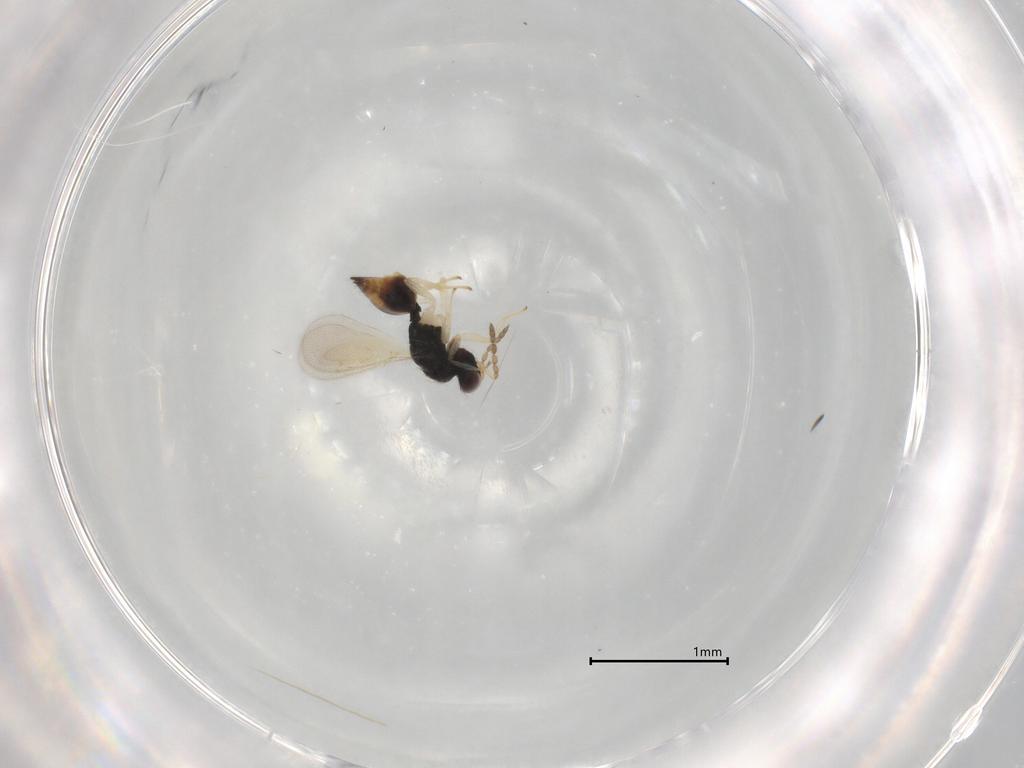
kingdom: Animalia
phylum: Arthropoda
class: Insecta
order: Hymenoptera
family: Eulophidae
